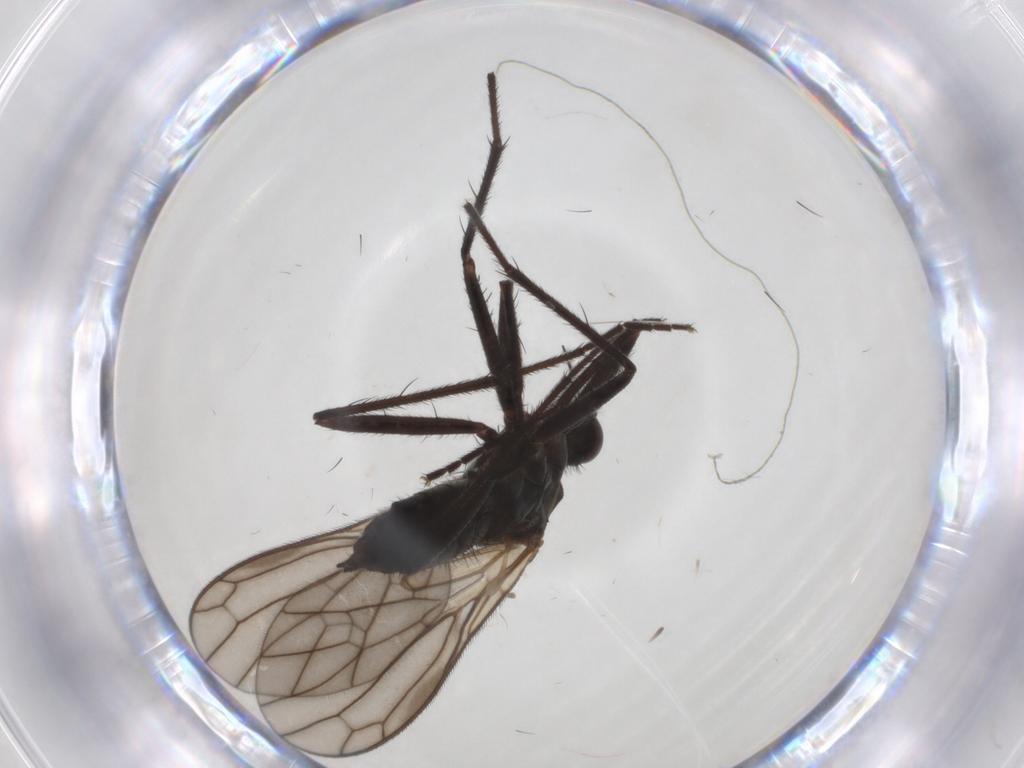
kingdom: Animalia
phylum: Arthropoda
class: Insecta
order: Diptera
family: Empididae
